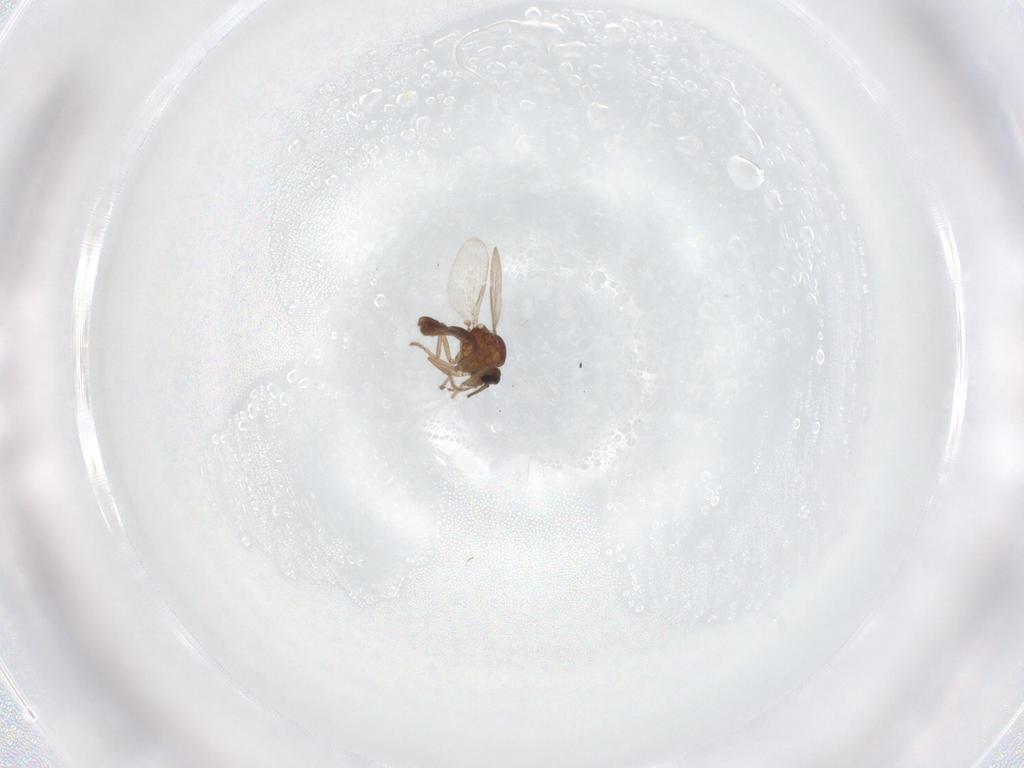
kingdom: Animalia
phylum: Arthropoda
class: Insecta
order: Diptera
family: Ceratopogonidae
